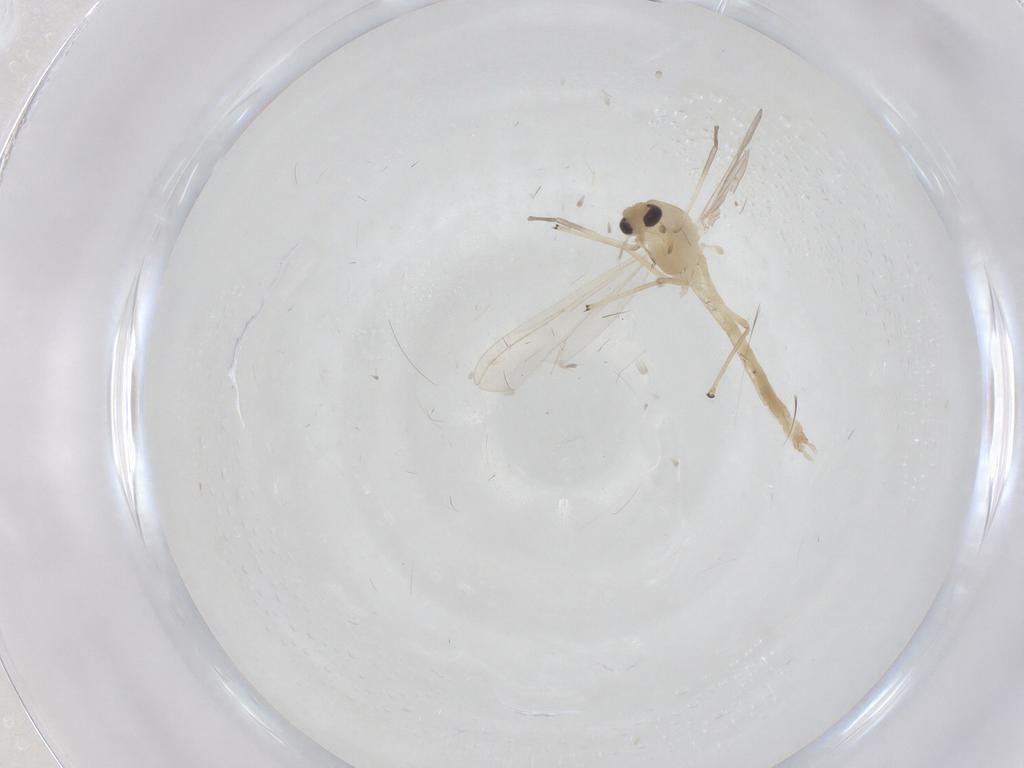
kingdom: Animalia
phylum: Arthropoda
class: Insecta
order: Diptera
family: Chironomidae
